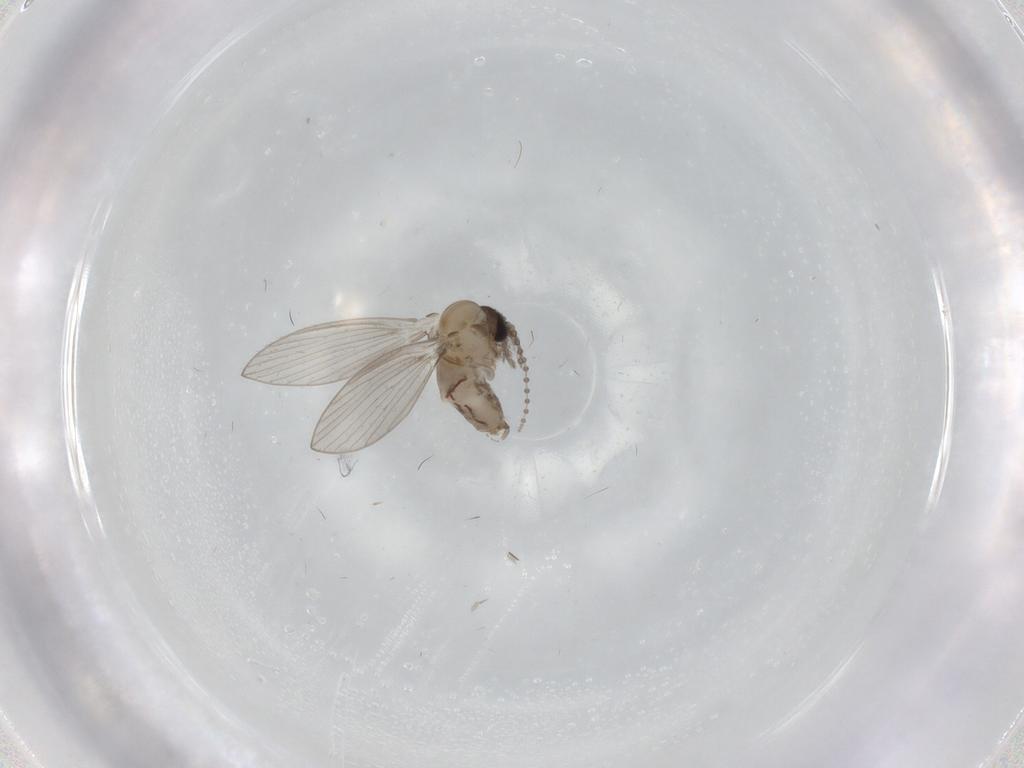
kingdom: Animalia
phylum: Arthropoda
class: Insecta
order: Diptera
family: Psychodidae
